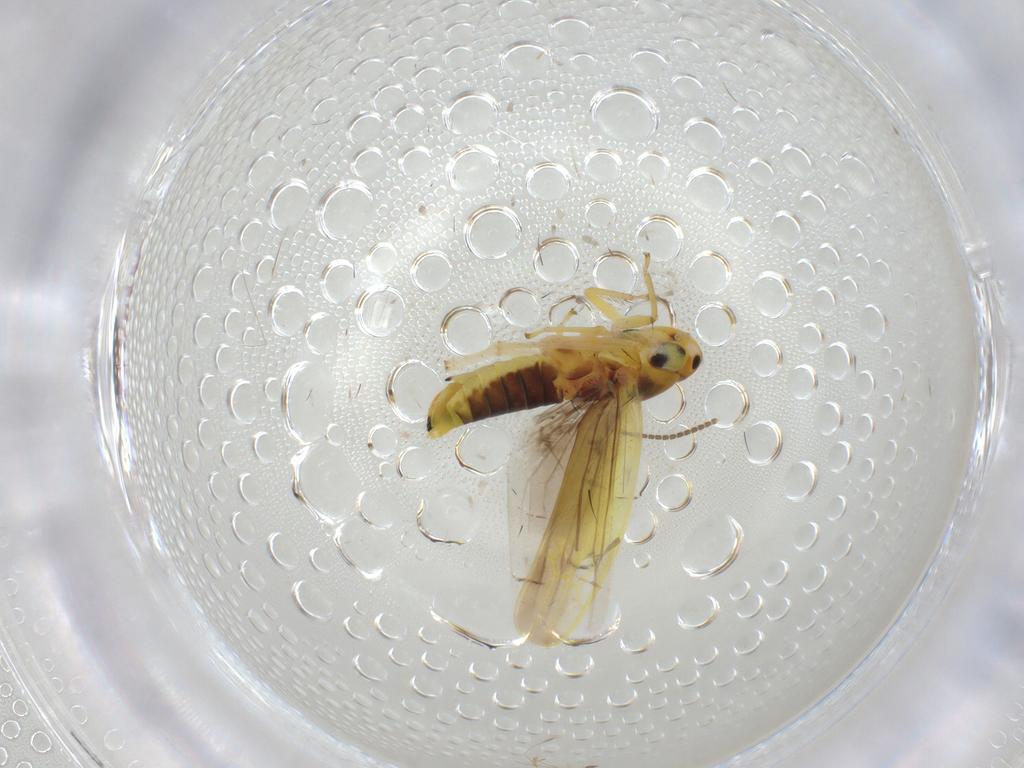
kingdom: Animalia
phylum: Arthropoda
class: Insecta
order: Hemiptera
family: Cicadellidae
